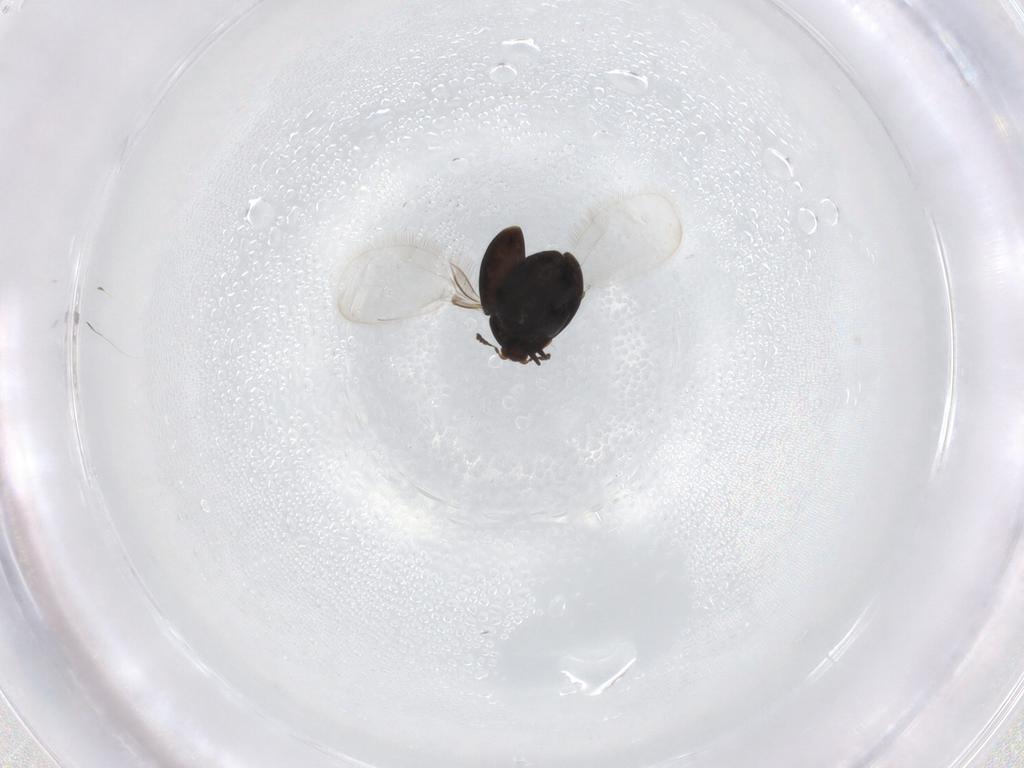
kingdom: Animalia
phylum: Arthropoda
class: Insecta
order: Coleoptera
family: Corylophidae
